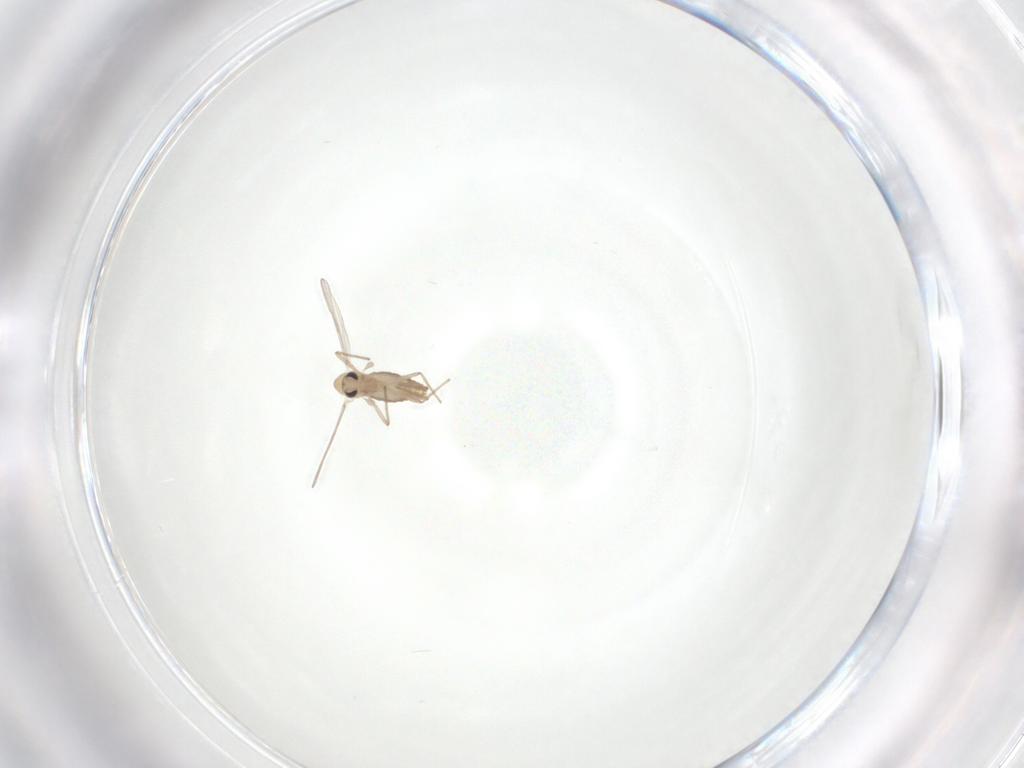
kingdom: Animalia
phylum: Arthropoda
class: Insecta
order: Diptera
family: Chironomidae
